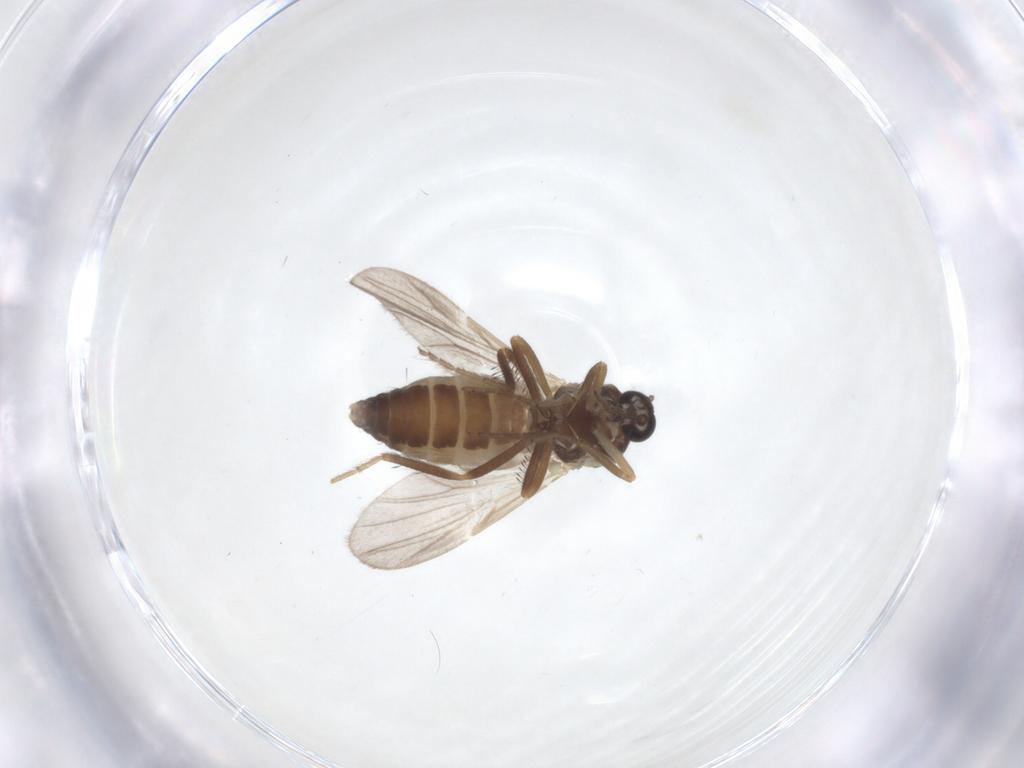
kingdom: Animalia
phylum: Arthropoda
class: Insecta
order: Diptera
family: Ceratopogonidae
